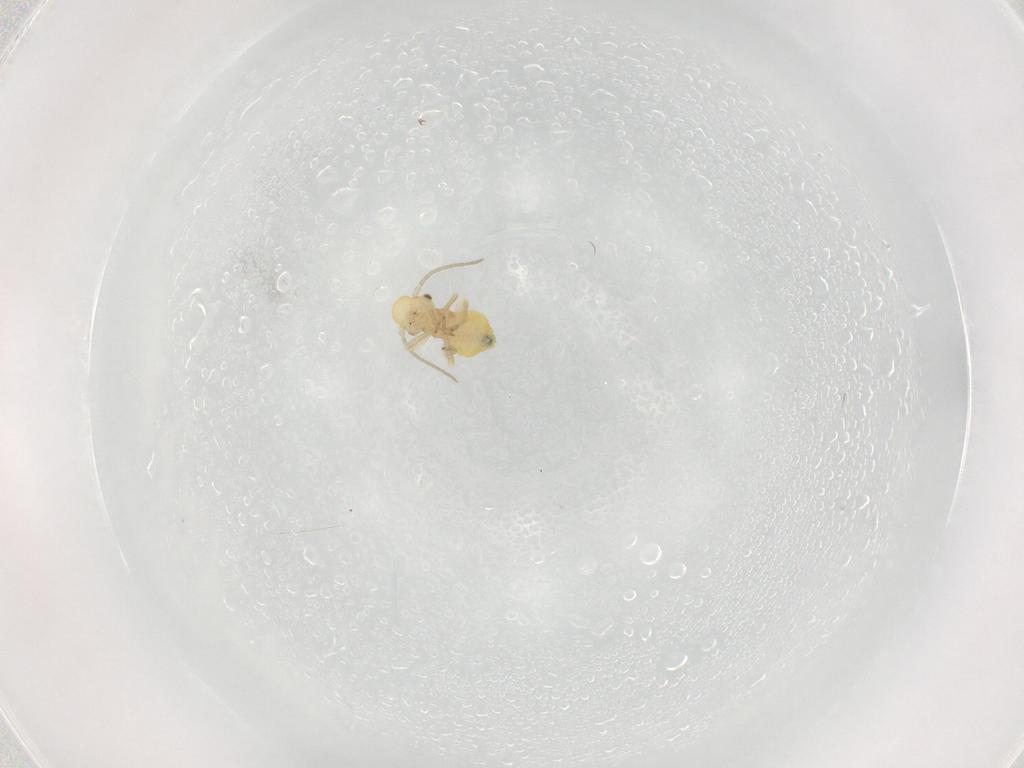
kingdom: Animalia
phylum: Arthropoda
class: Insecta
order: Psocodea
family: Caeciliusidae
